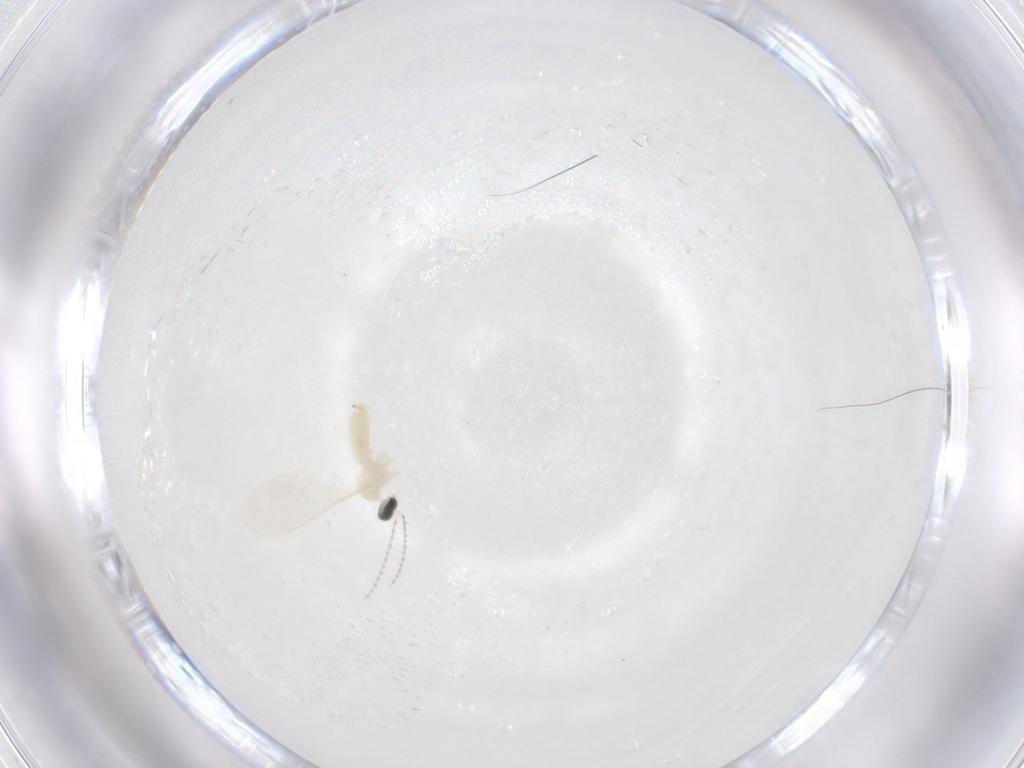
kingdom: Animalia
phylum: Arthropoda
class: Insecta
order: Diptera
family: Cecidomyiidae
